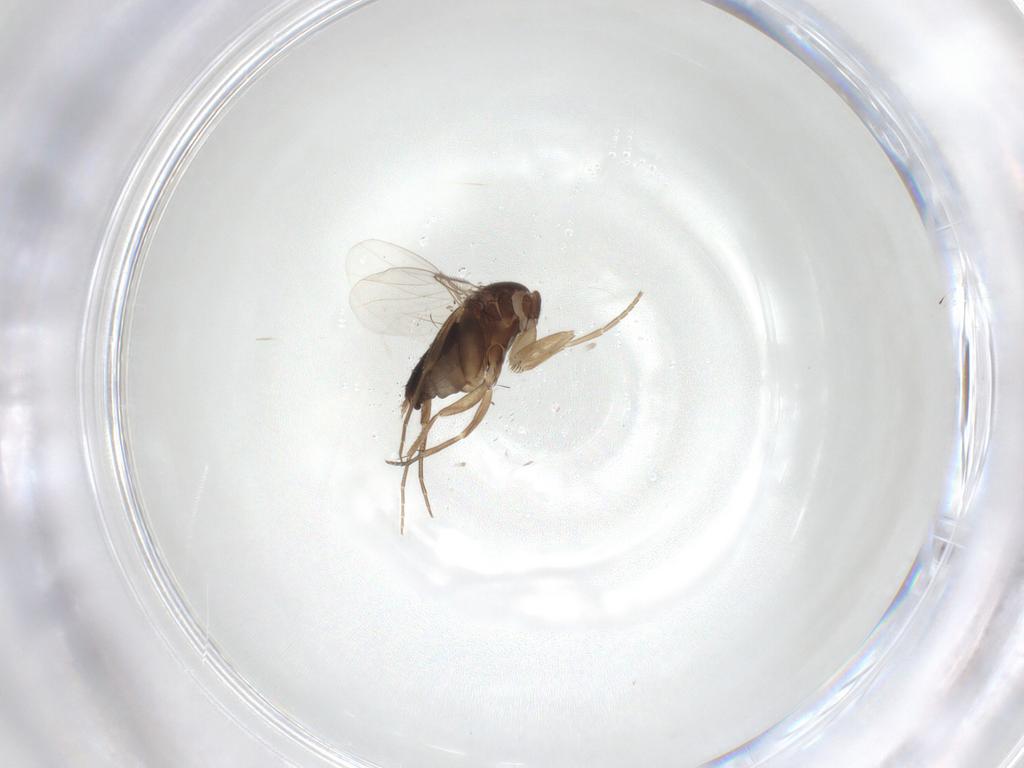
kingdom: Animalia
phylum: Arthropoda
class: Insecta
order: Diptera
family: Phoridae
